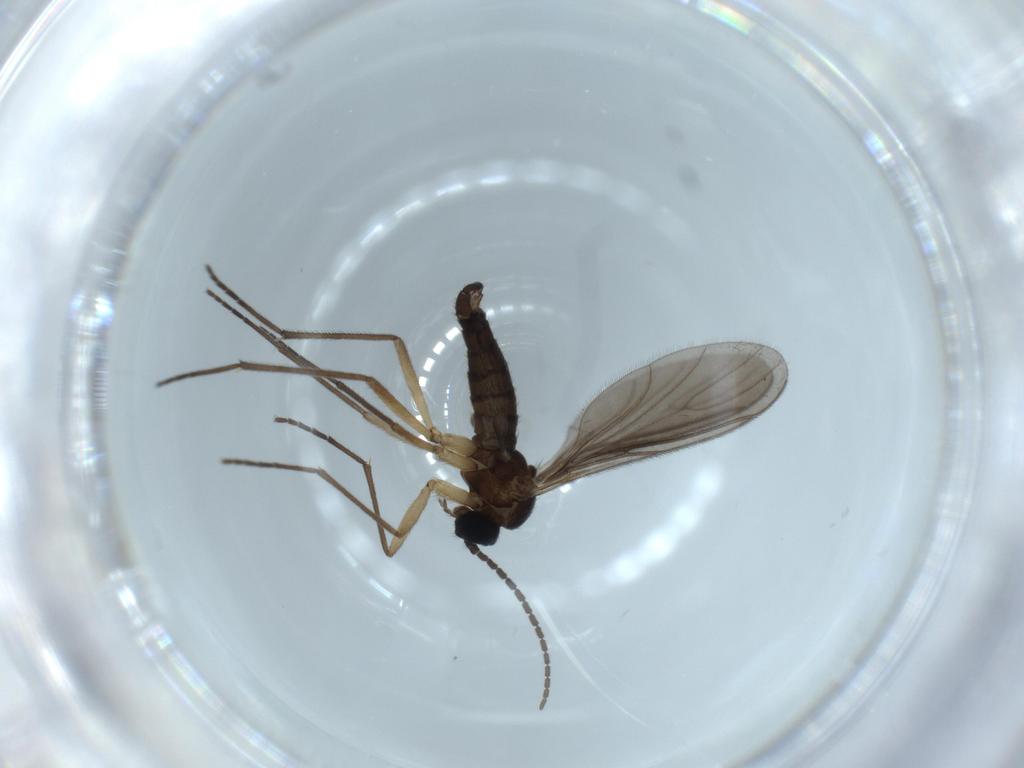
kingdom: Animalia
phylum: Arthropoda
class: Insecta
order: Diptera
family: Sciaridae
